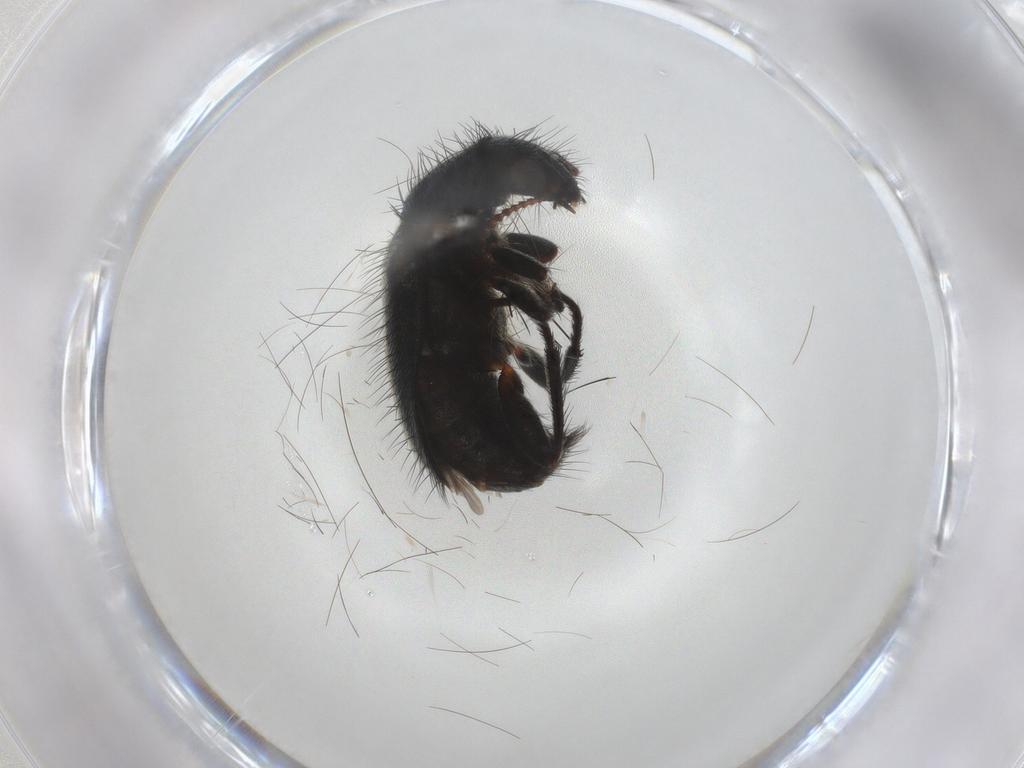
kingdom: Animalia
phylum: Arthropoda
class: Insecta
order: Coleoptera
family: Melyridae
